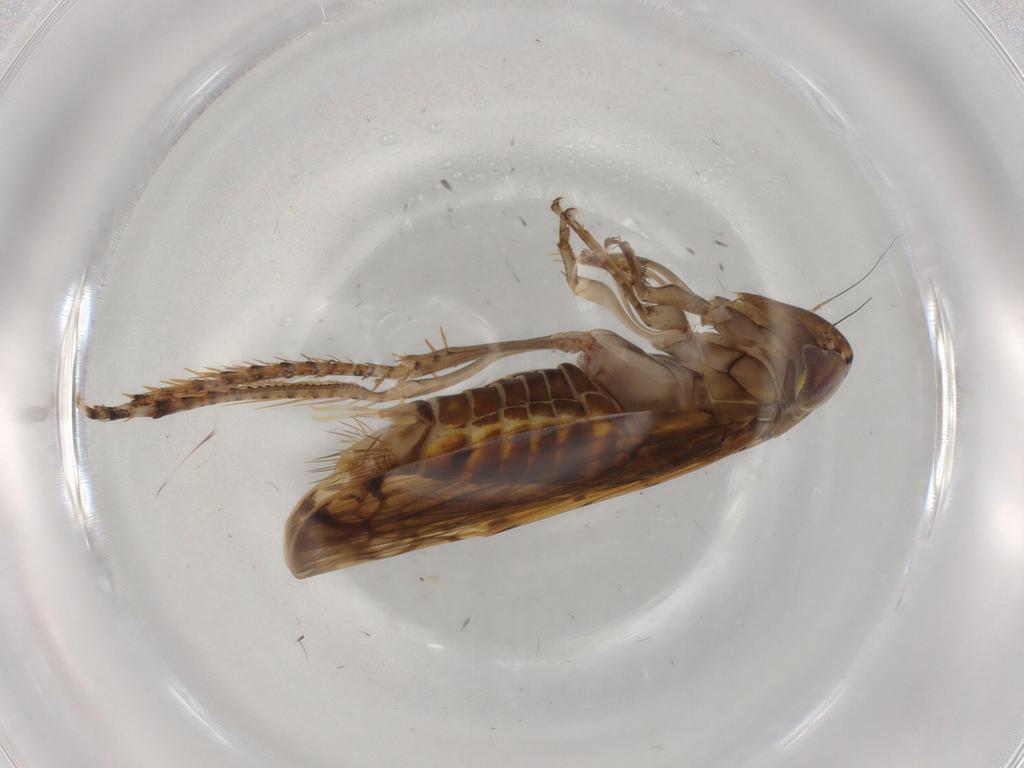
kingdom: Animalia
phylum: Arthropoda
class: Insecta
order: Hemiptera
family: Cicadellidae
